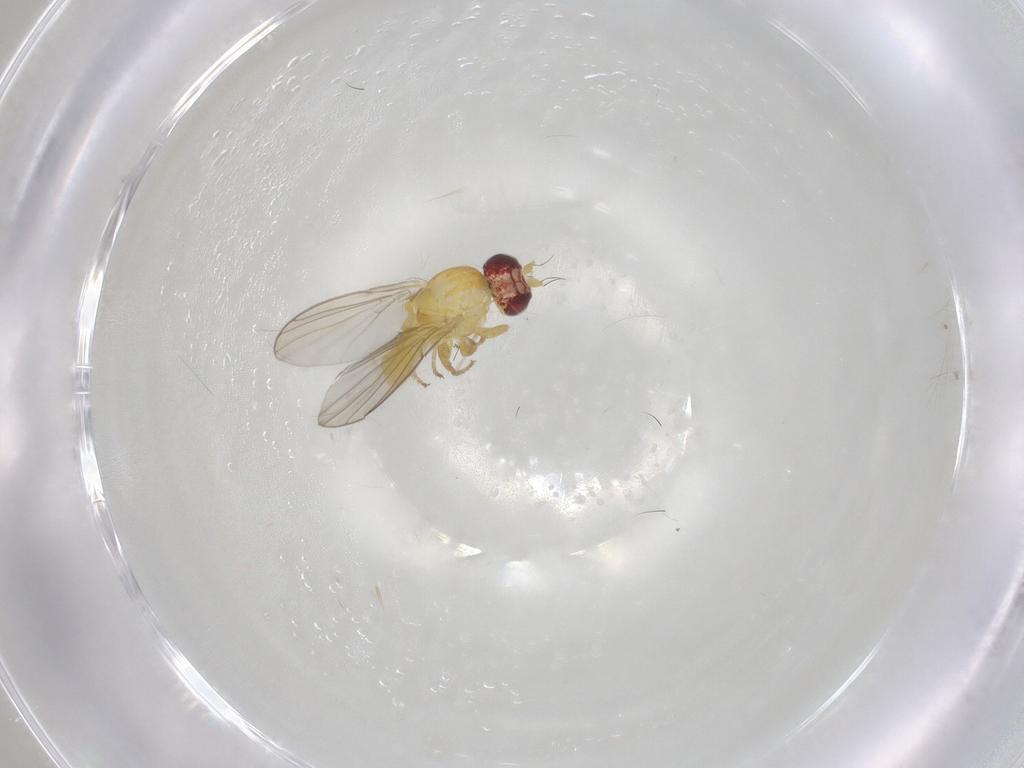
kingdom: Animalia
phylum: Arthropoda
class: Insecta
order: Diptera
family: Cecidomyiidae
